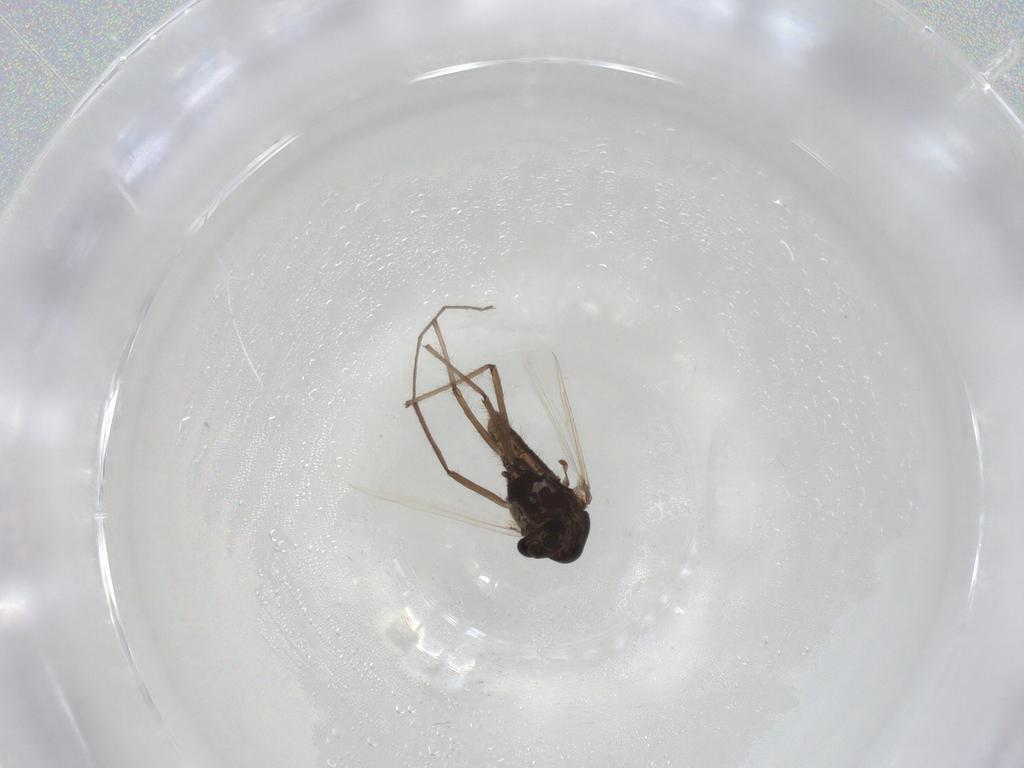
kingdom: Animalia
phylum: Arthropoda
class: Insecta
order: Diptera
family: Chironomidae
